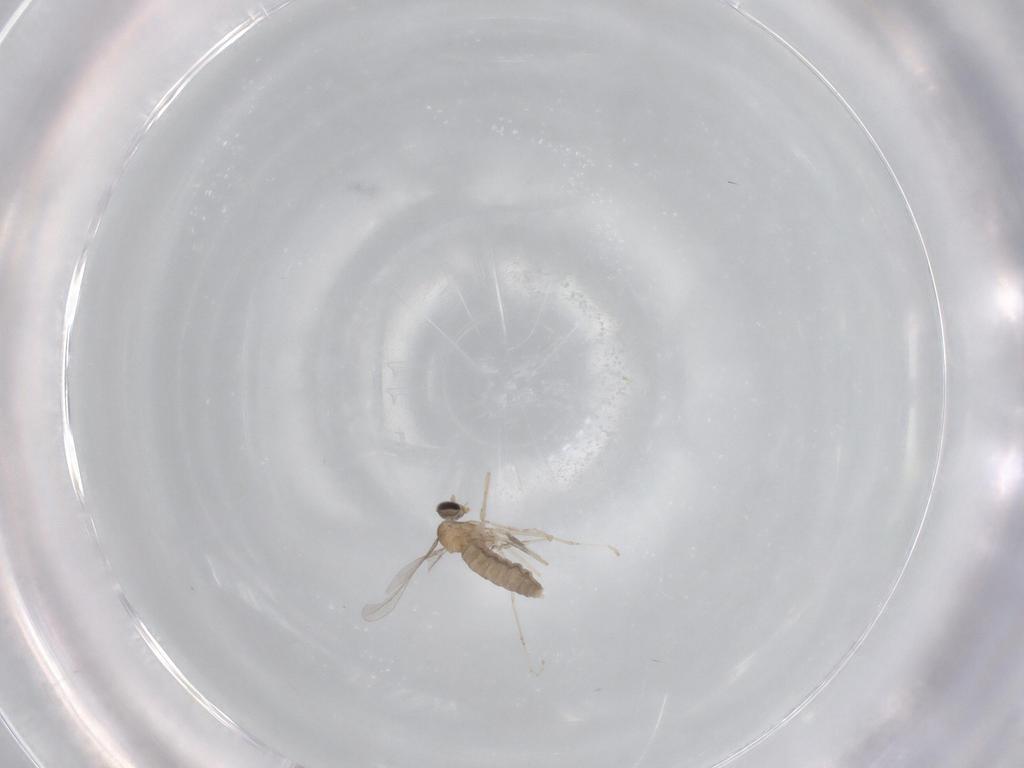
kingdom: Animalia
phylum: Arthropoda
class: Insecta
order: Diptera
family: Cecidomyiidae
